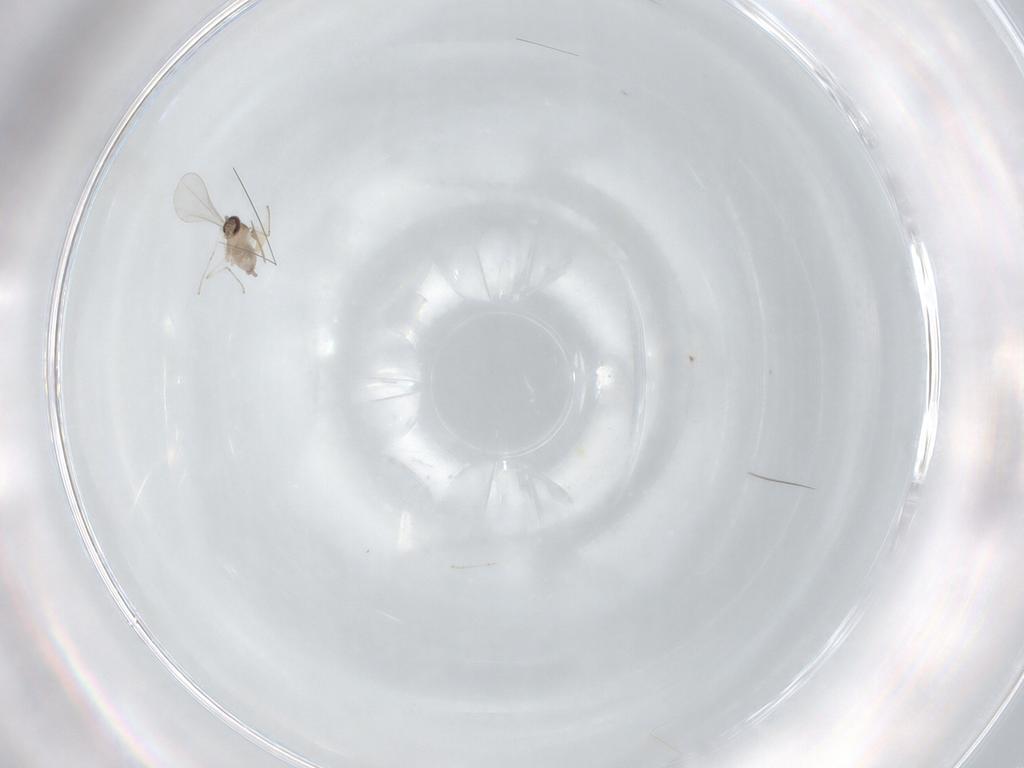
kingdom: Animalia
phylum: Arthropoda
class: Insecta
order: Diptera
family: Cecidomyiidae
